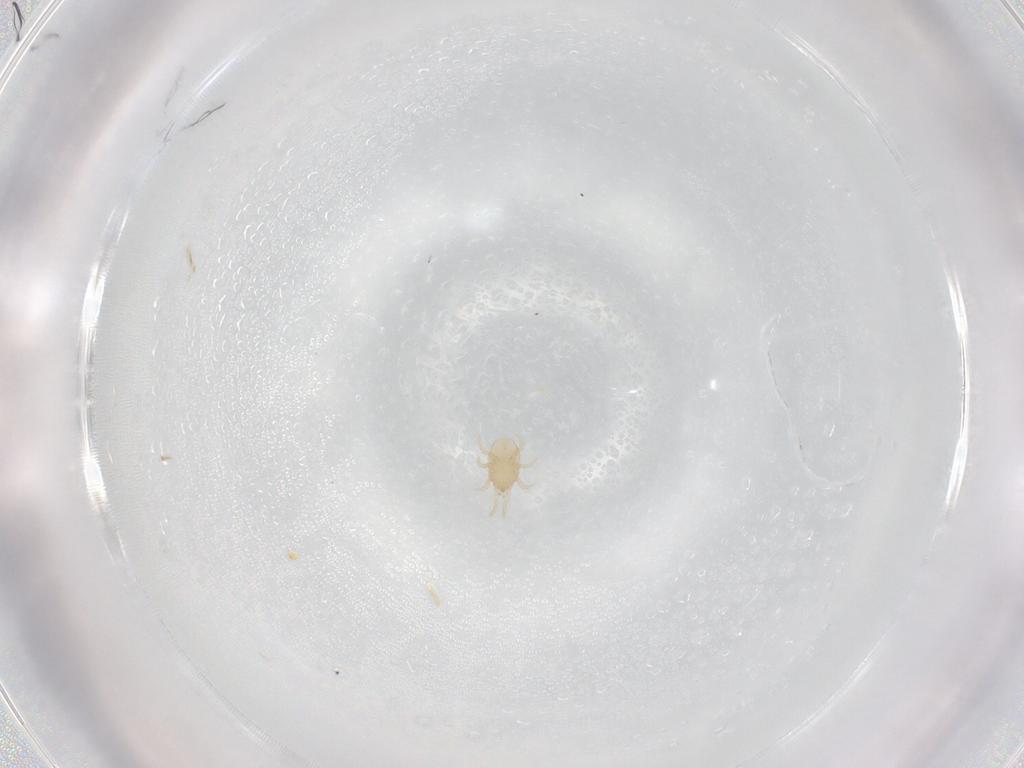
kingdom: Animalia
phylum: Arthropoda
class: Arachnida
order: Mesostigmata
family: Melicharidae
